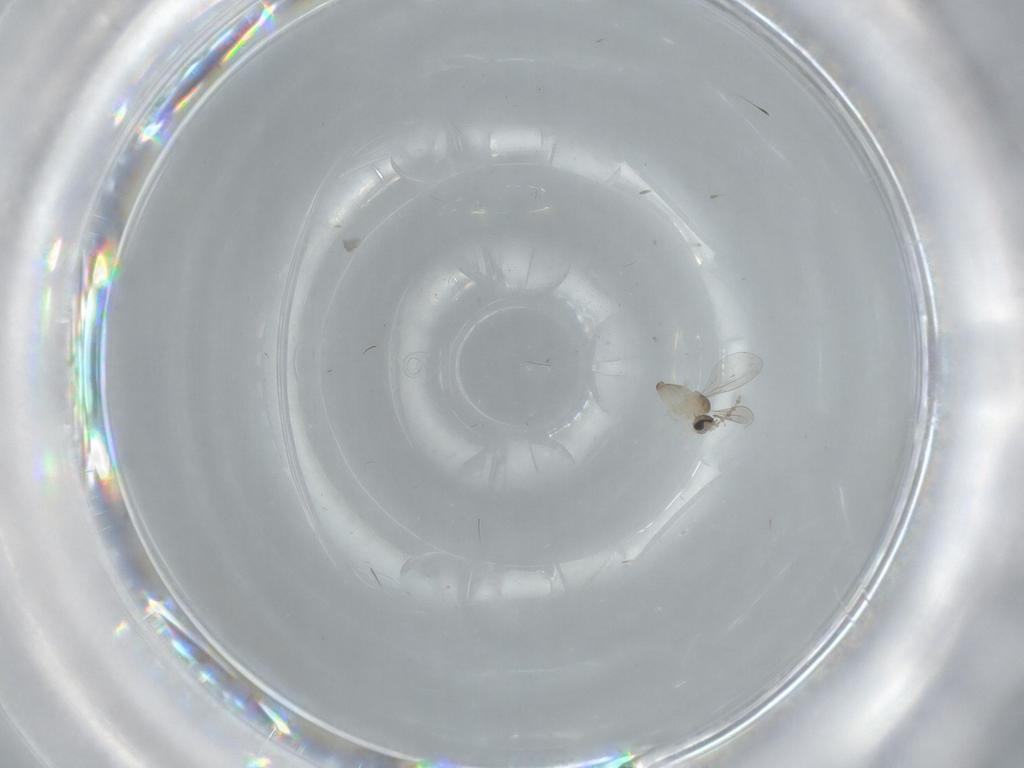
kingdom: Animalia
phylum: Arthropoda
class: Insecta
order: Diptera
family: Cecidomyiidae
